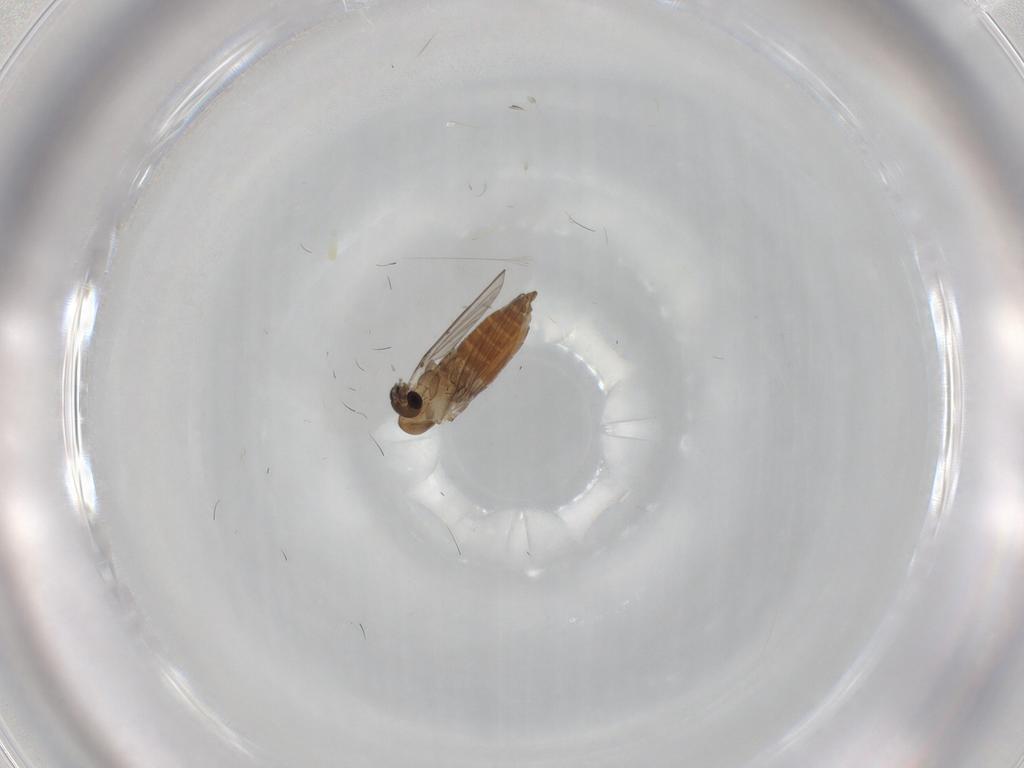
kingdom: Animalia
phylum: Arthropoda
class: Insecta
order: Diptera
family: Psychodidae
